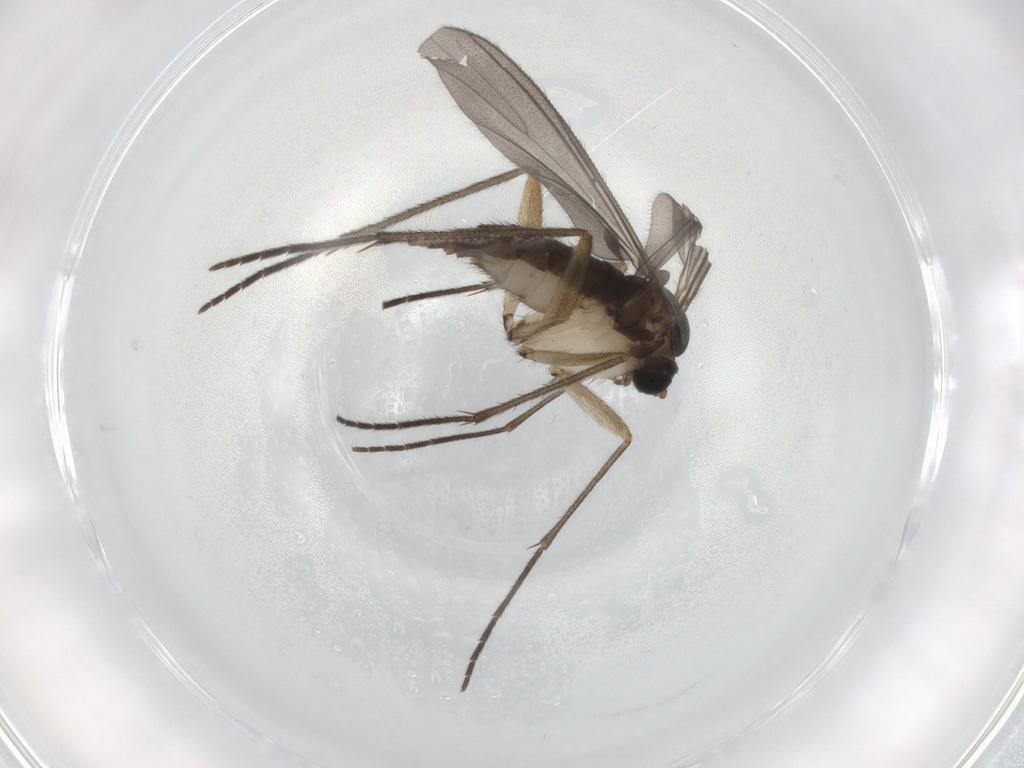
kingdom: Animalia
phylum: Arthropoda
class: Insecta
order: Diptera
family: Sciaridae
